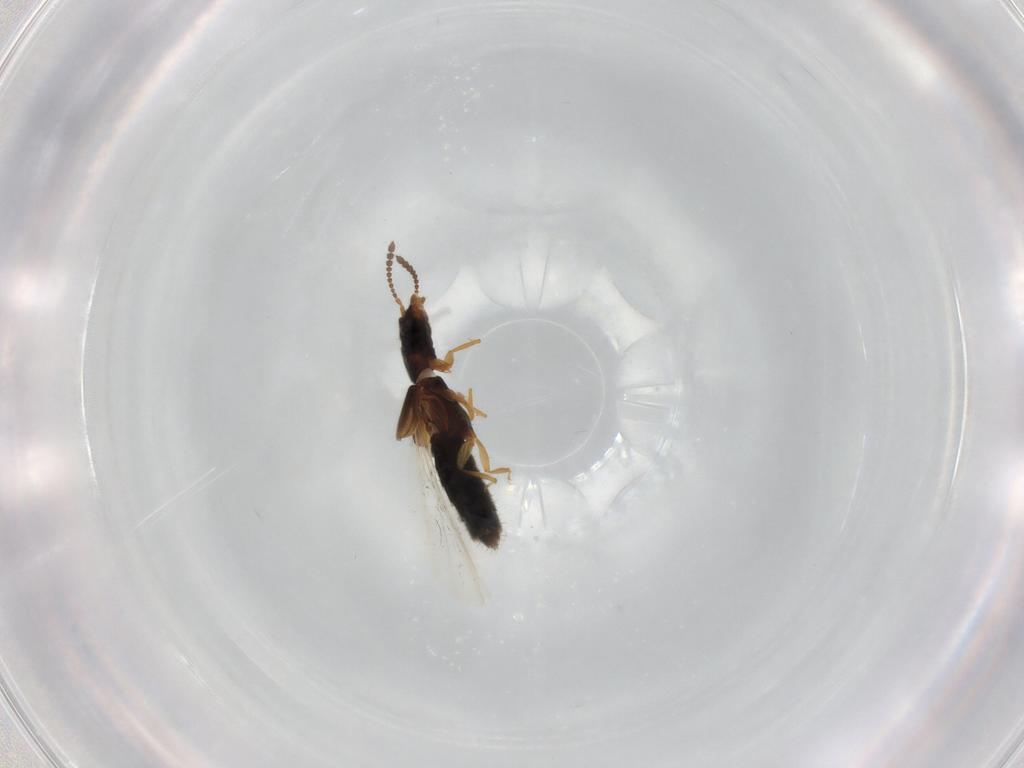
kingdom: Animalia
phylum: Arthropoda
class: Insecta
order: Coleoptera
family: Staphylinidae
